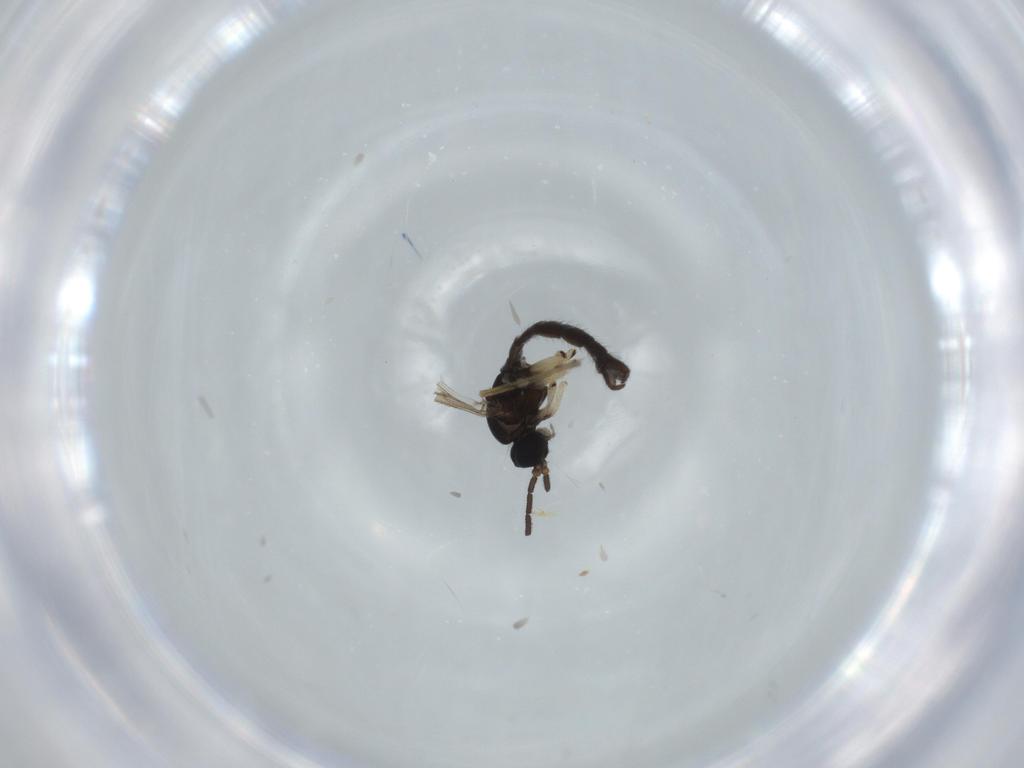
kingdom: Animalia
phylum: Arthropoda
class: Insecta
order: Diptera
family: Sciaridae
